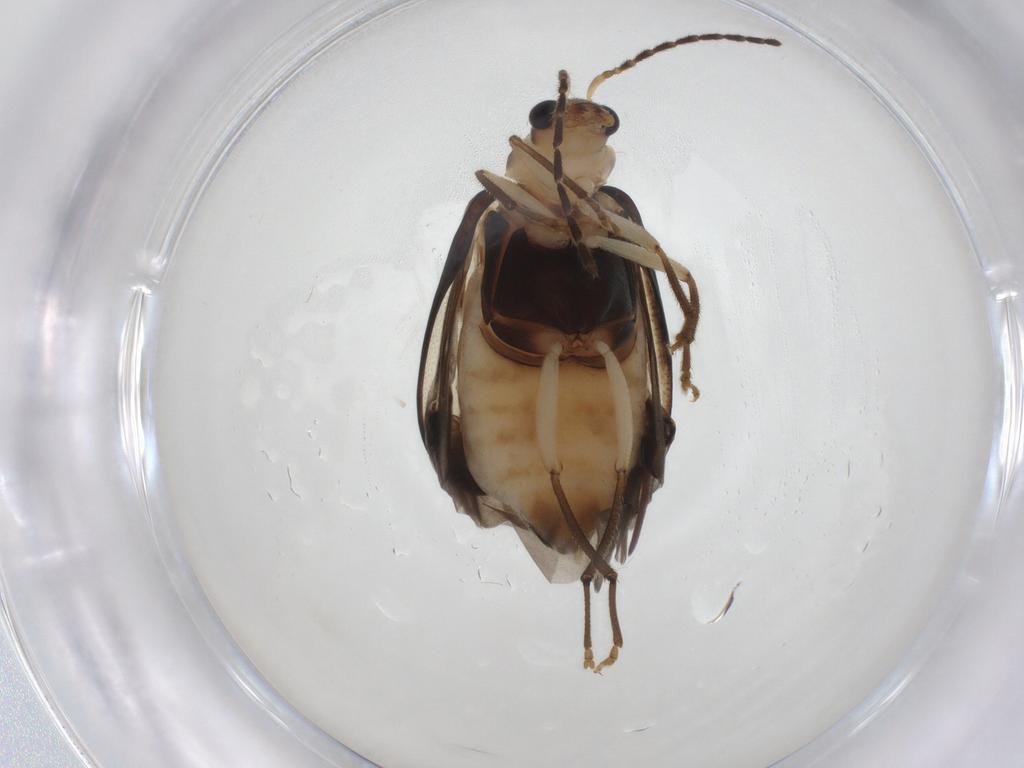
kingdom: Animalia
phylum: Arthropoda
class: Insecta
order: Coleoptera
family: Chrysomelidae
